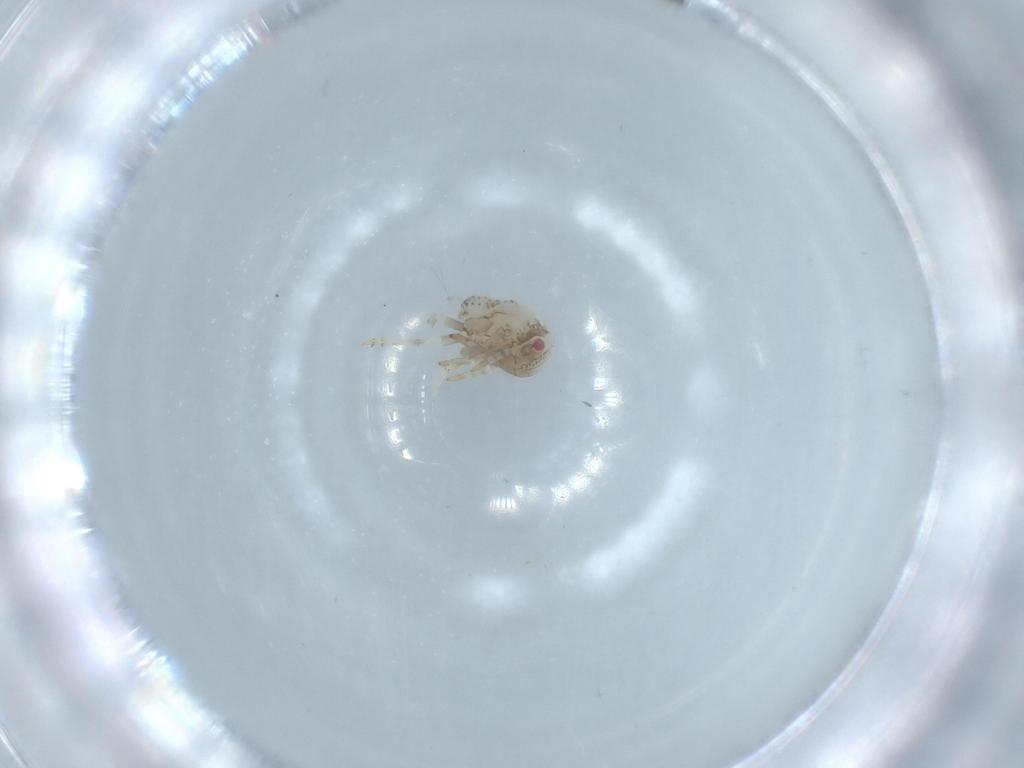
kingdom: Animalia
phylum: Arthropoda
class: Insecta
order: Hemiptera
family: Acanaloniidae
